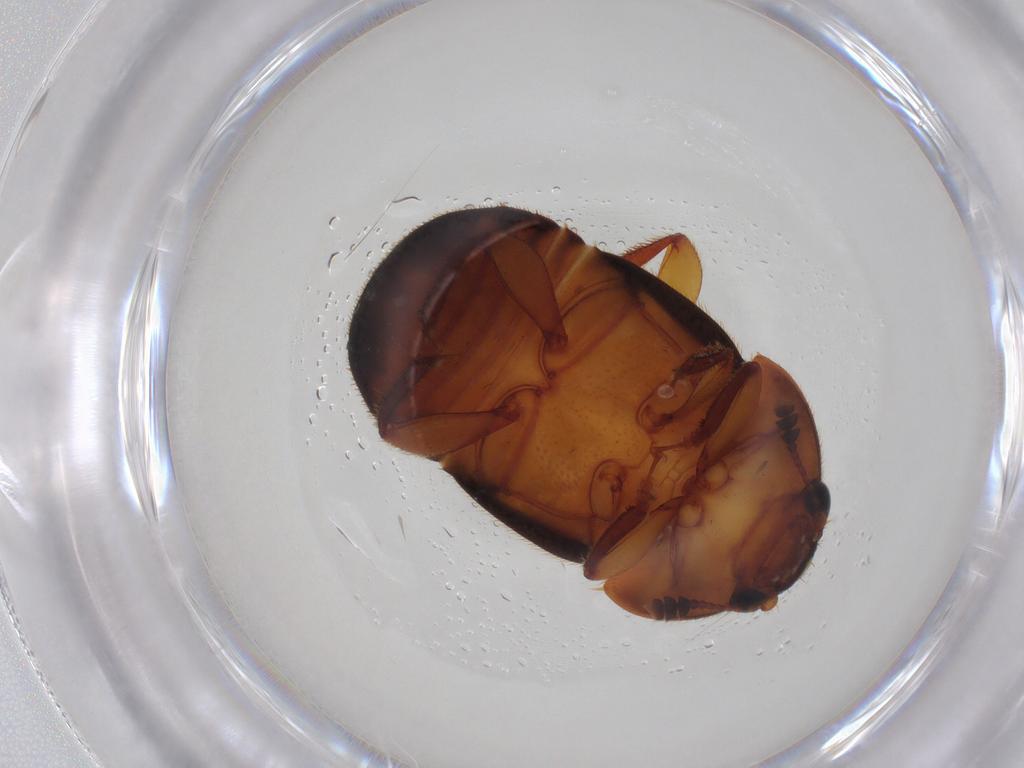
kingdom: Animalia
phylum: Arthropoda
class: Insecta
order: Coleoptera
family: Nitidulidae
